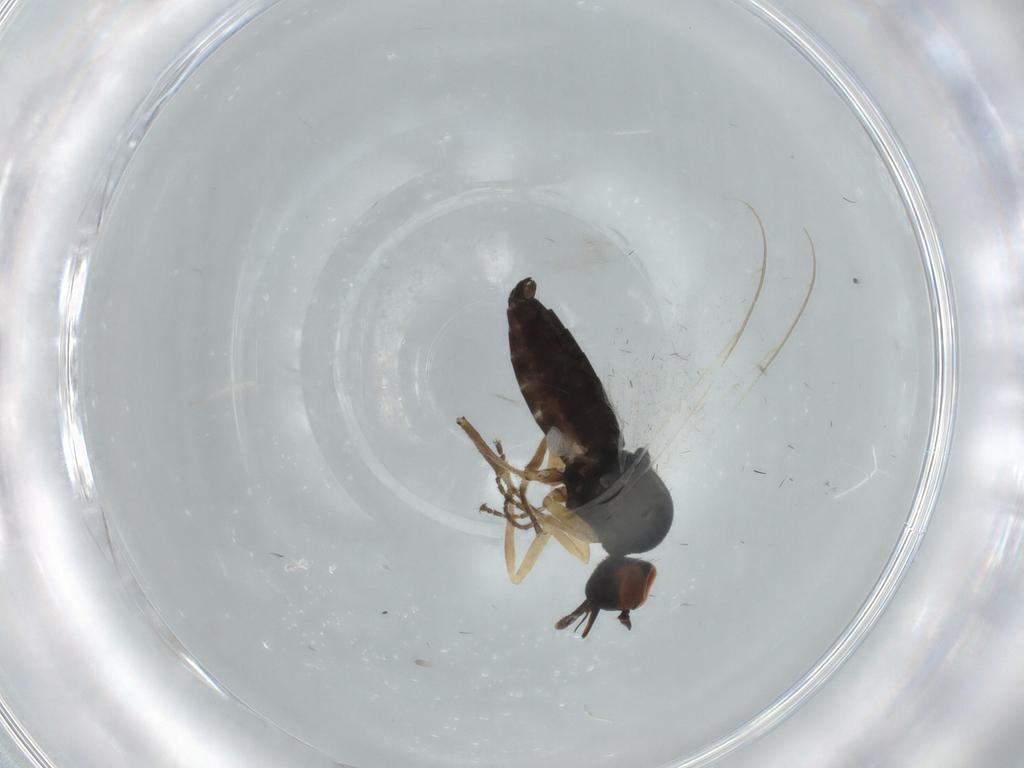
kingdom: Animalia
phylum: Arthropoda
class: Insecta
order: Diptera
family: Hybotidae
